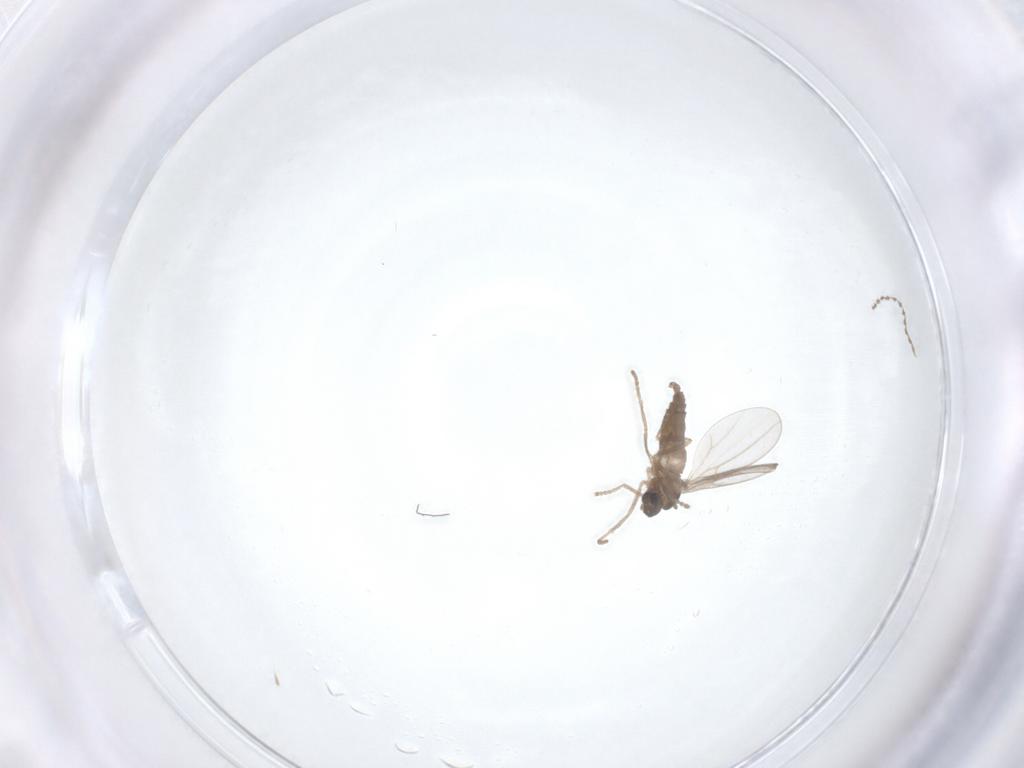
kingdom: Animalia
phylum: Arthropoda
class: Insecta
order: Diptera
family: Cecidomyiidae
